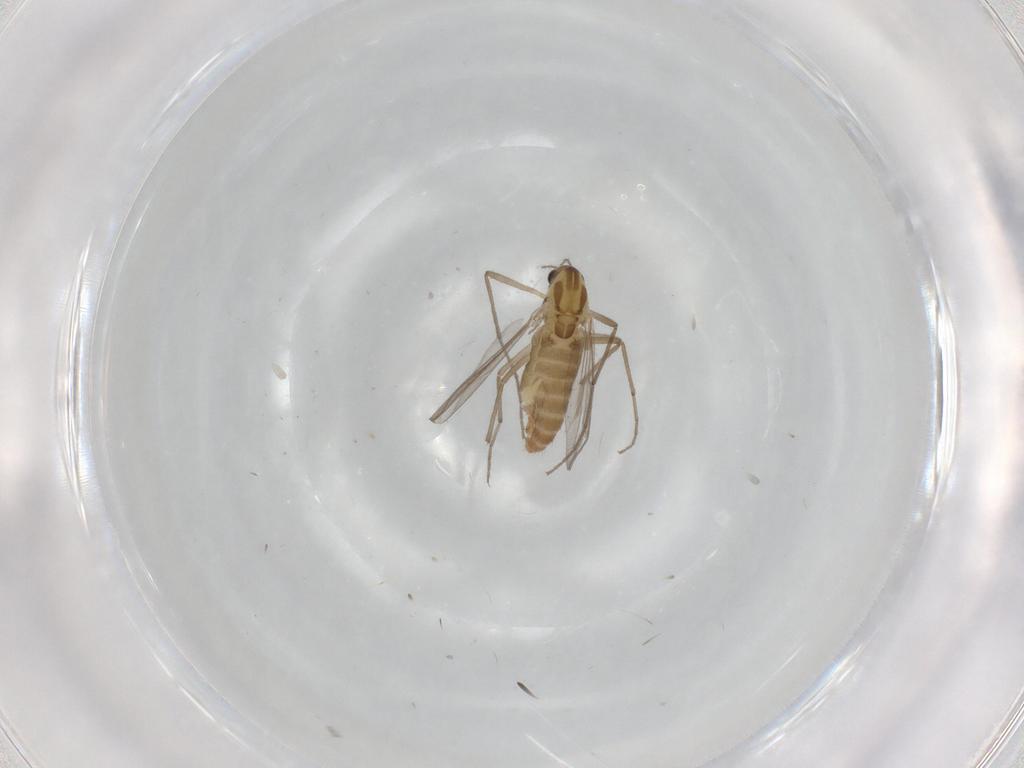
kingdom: Animalia
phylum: Arthropoda
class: Insecta
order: Diptera
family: Chironomidae
